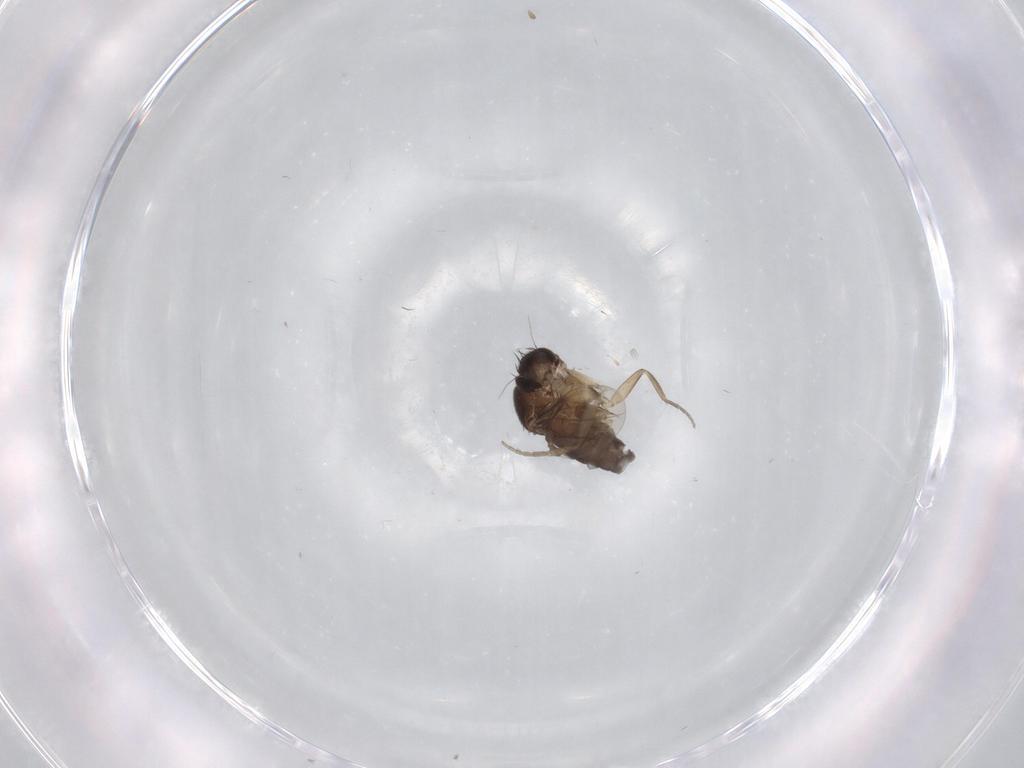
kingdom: Animalia
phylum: Arthropoda
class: Insecta
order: Diptera
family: Phoridae
